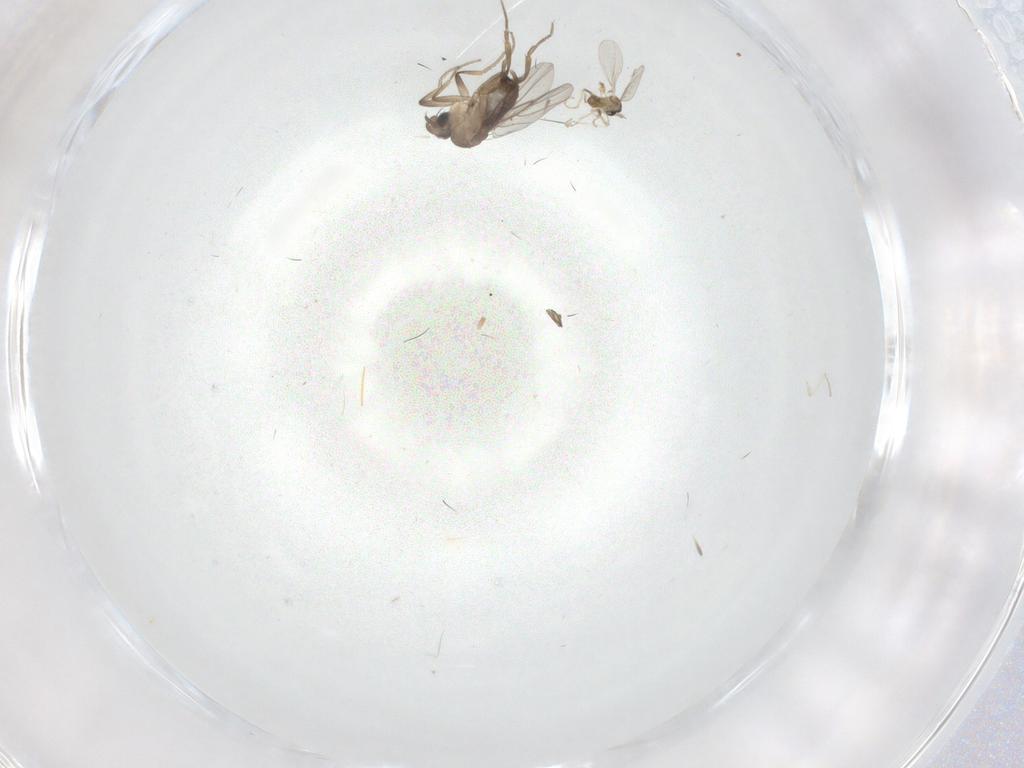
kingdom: Animalia
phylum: Arthropoda
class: Insecta
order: Diptera
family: Cecidomyiidae
